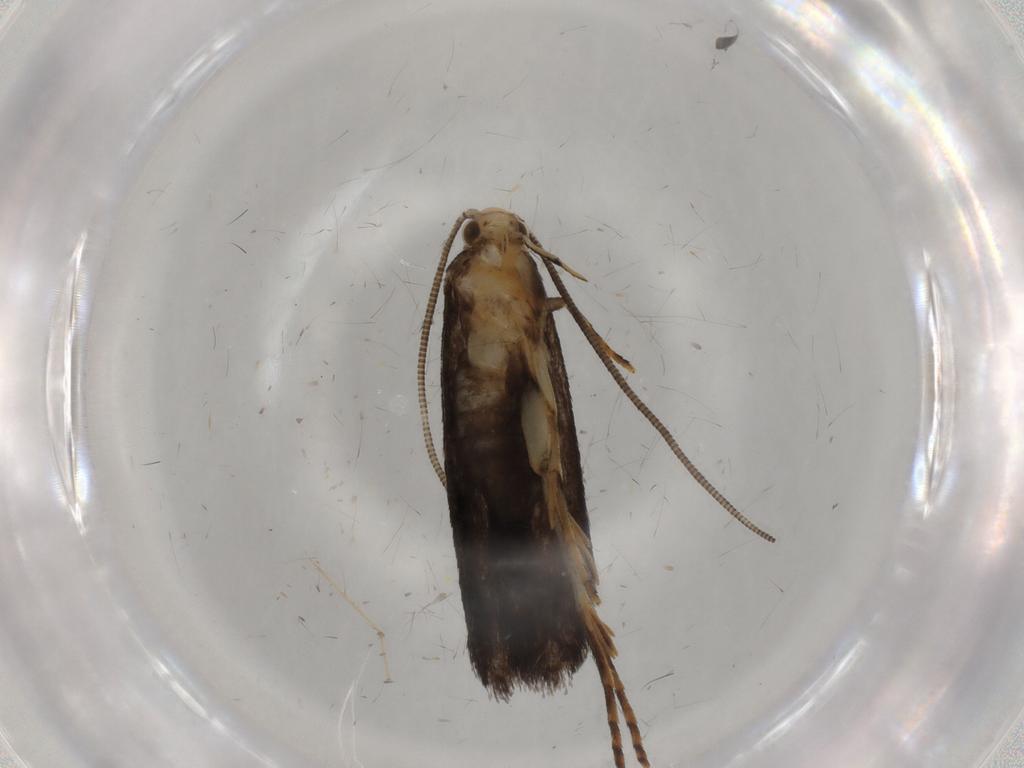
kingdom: Animalia
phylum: Arthropoda
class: Insecta
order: Lepidoptera
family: Tineidae
